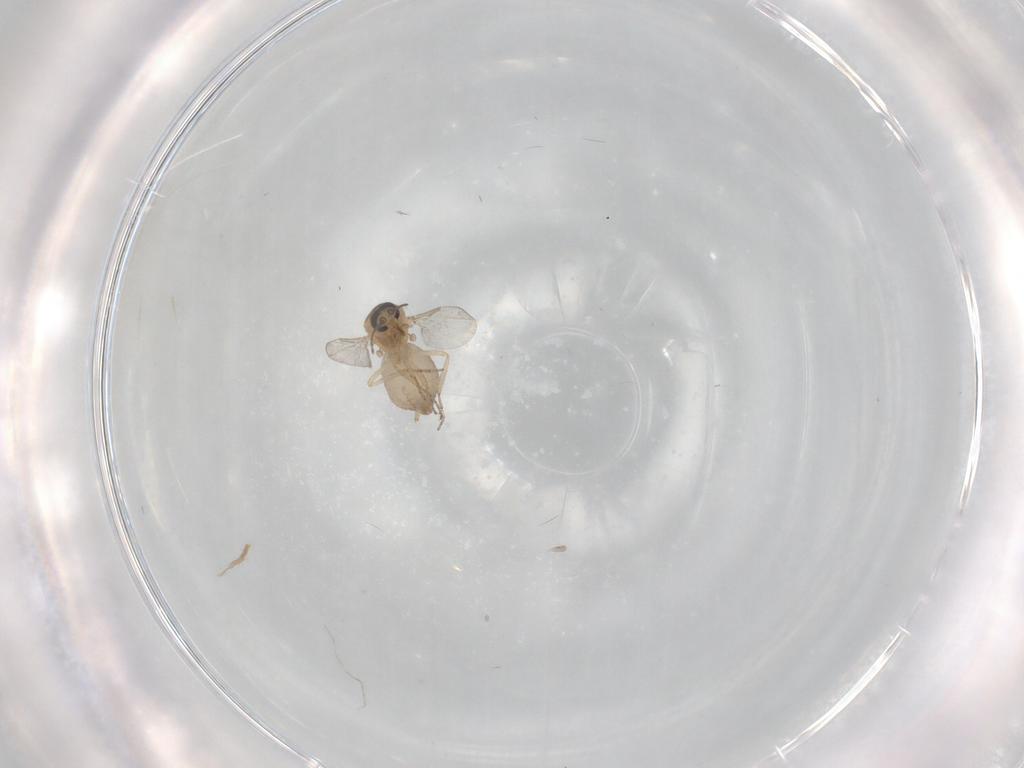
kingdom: Animalia
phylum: Arthropoda
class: Insecta
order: Diptera
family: Ceratopogonidae
